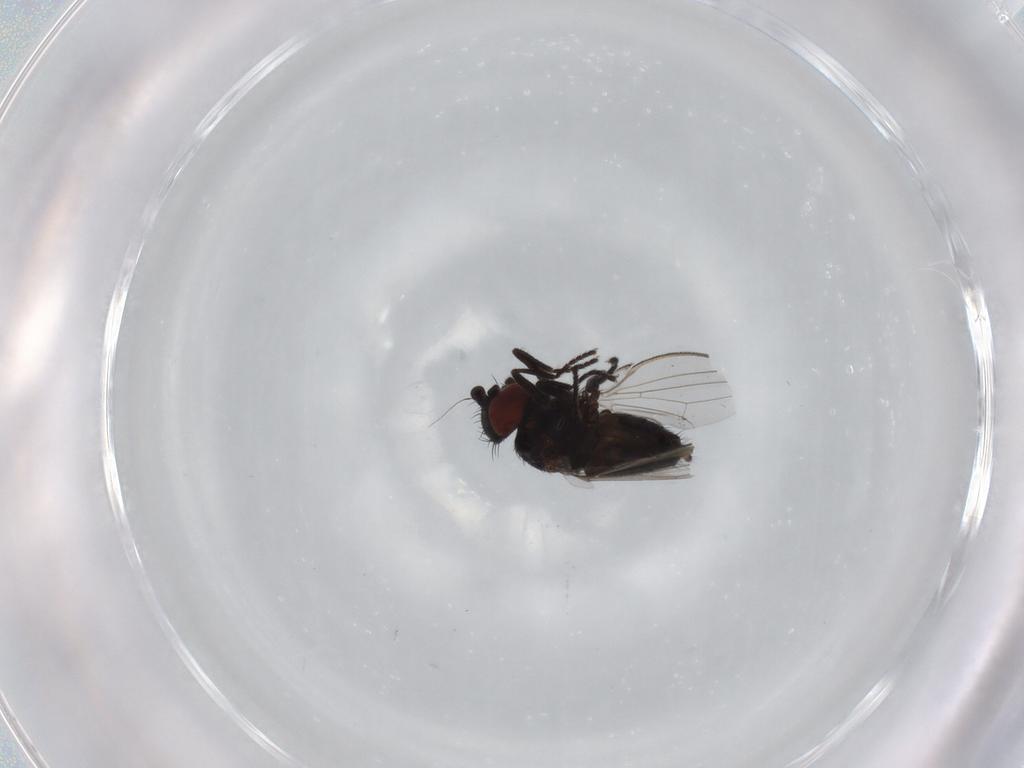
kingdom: Animalia
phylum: Arthropoda
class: Insecta
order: Diptera
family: Milichiidae
